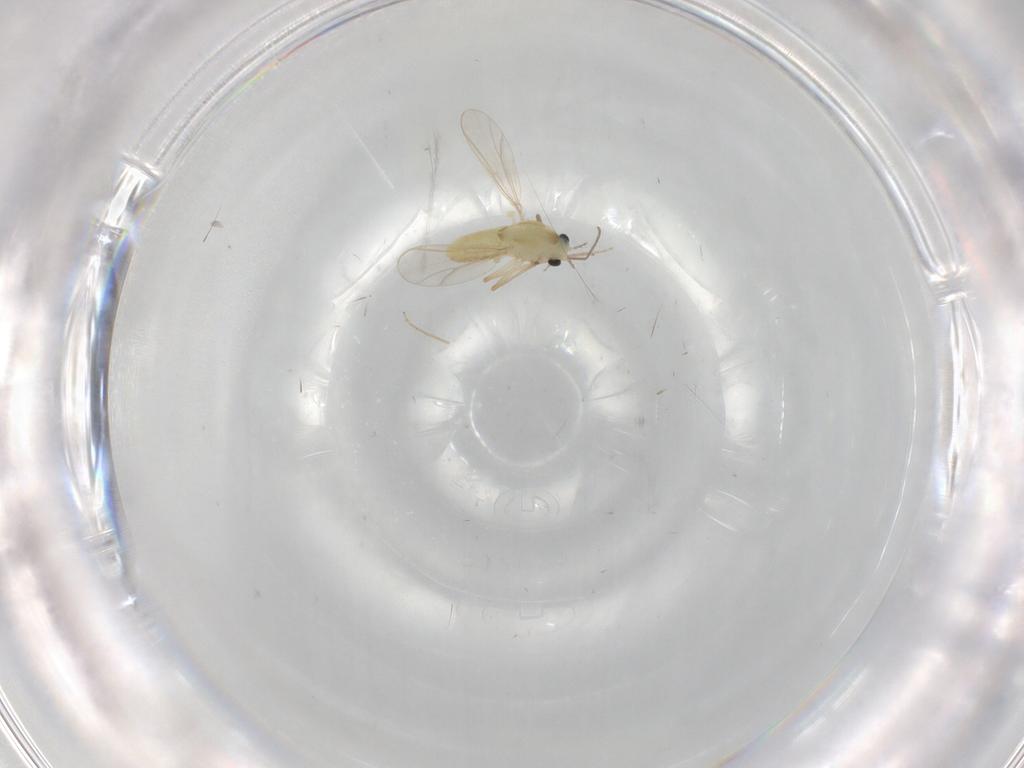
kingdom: Animalia
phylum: Arthropoda
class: Insecta
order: Diptera
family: Chironomidae
